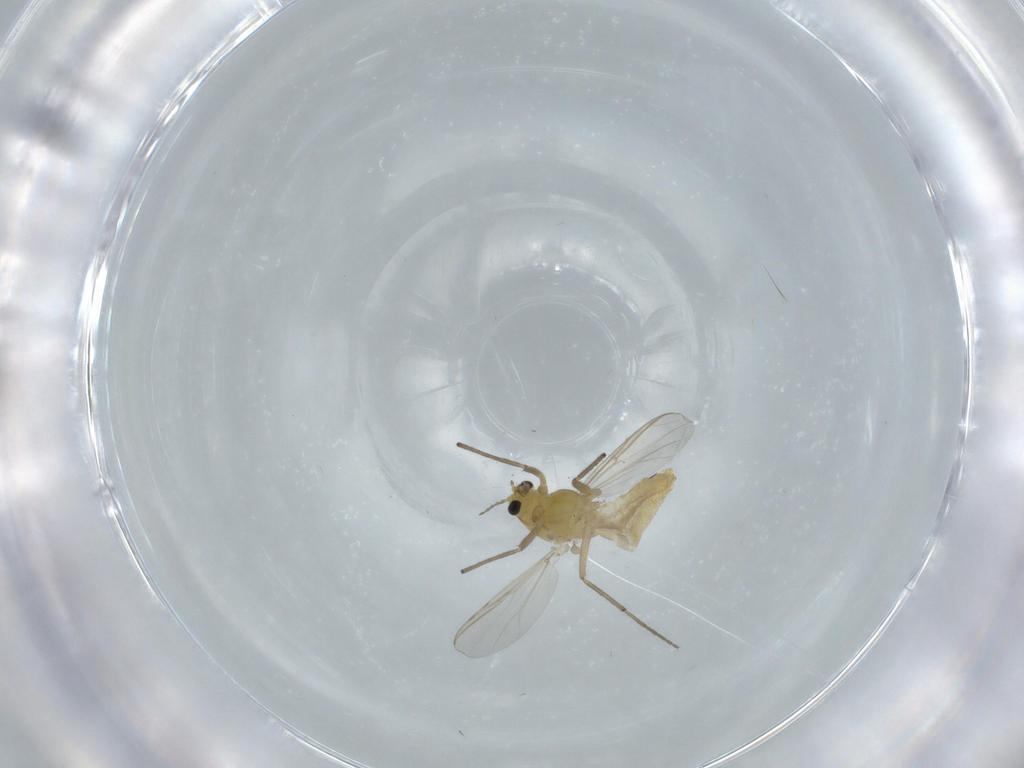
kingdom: Animalia
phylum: Arthropoda
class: Insecta
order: Diptera
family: Chironomidae
